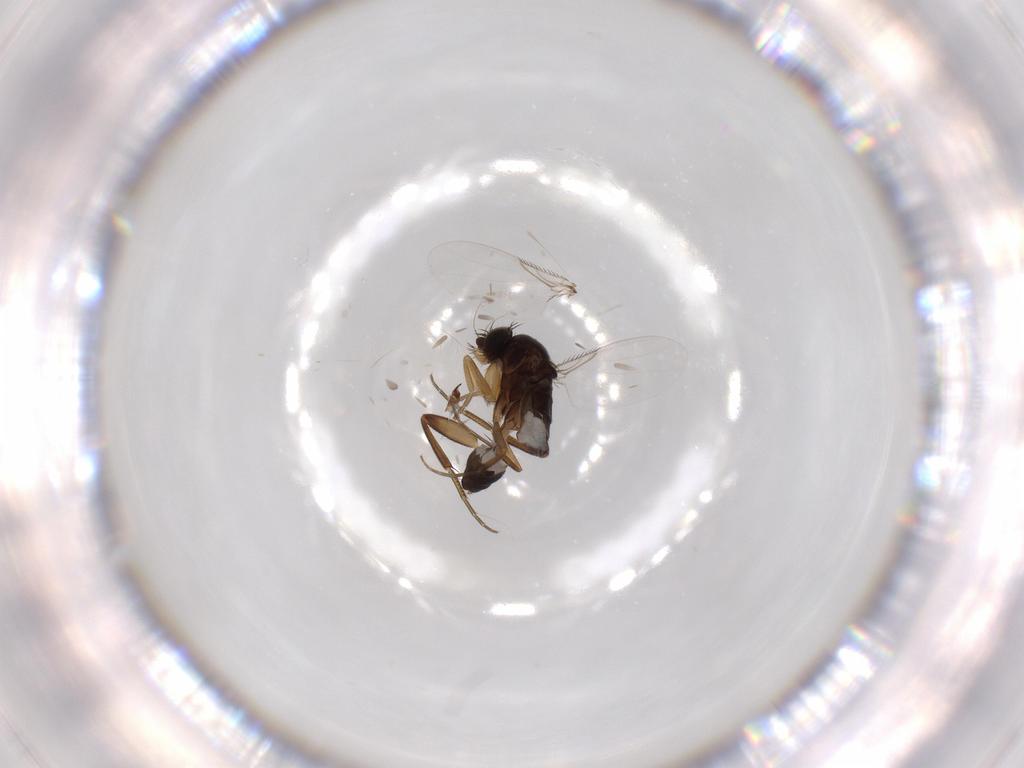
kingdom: Animalia
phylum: Arthropoda
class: Insecta
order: Diptera
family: Phoridae
